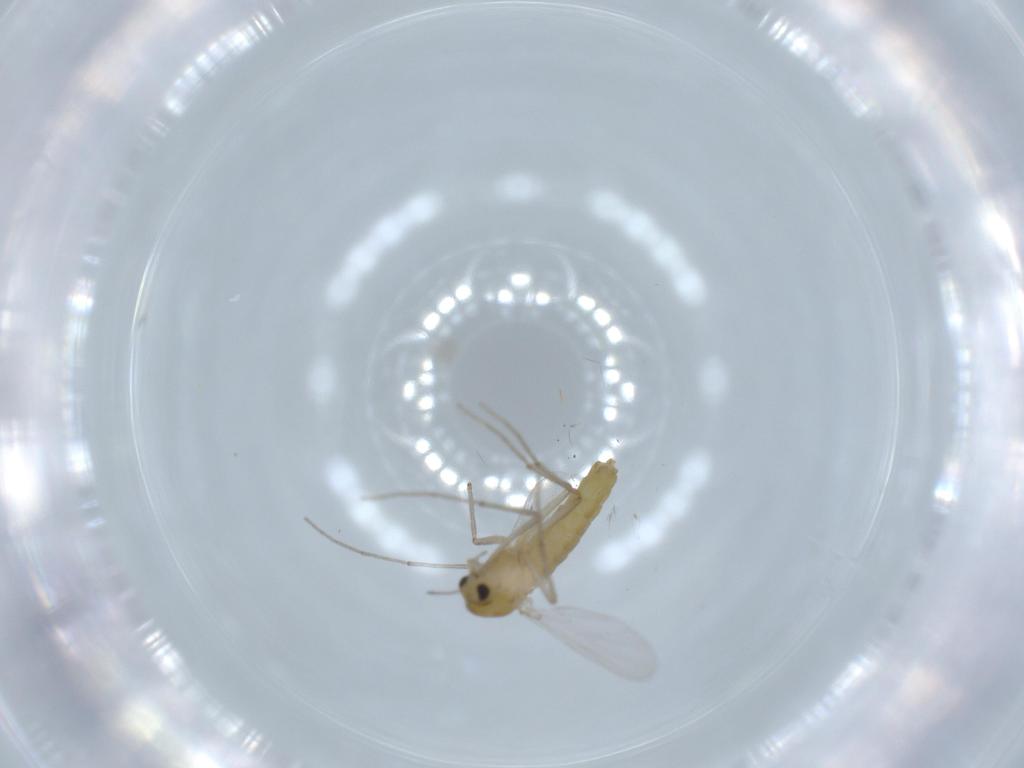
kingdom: Animalia
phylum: Arthropoda
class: Insecta
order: Diptera
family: Chironomidae
